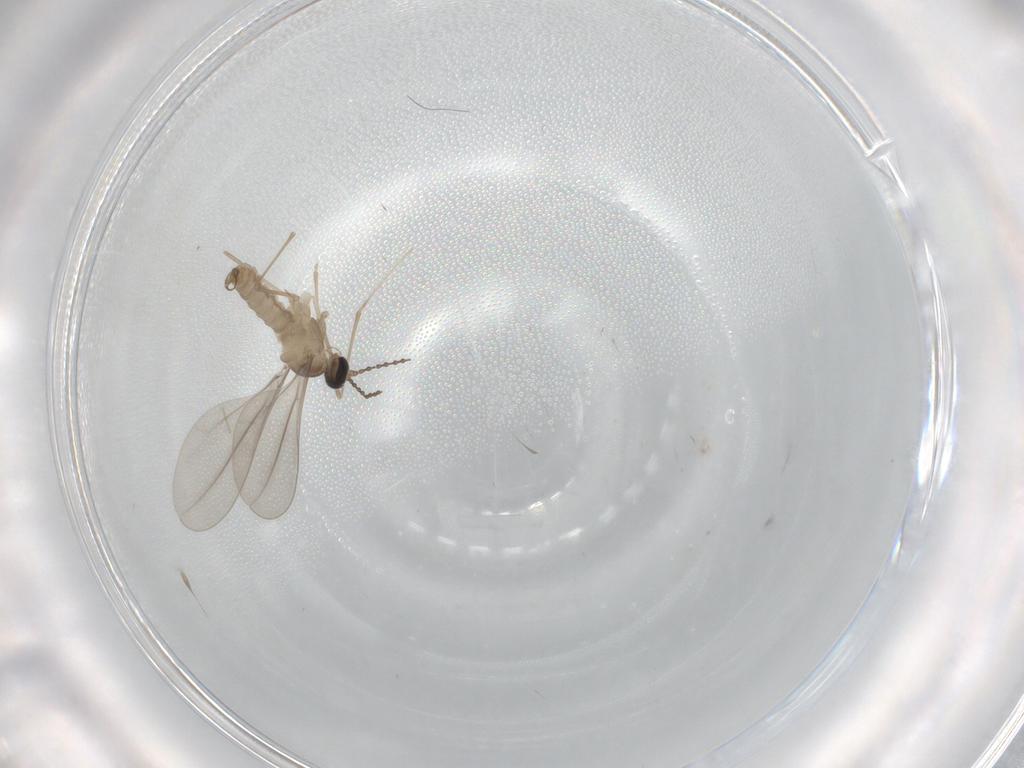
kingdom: Animalia
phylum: Arthropoda
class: Insecta
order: Diptera
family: Cecidomyiidae
